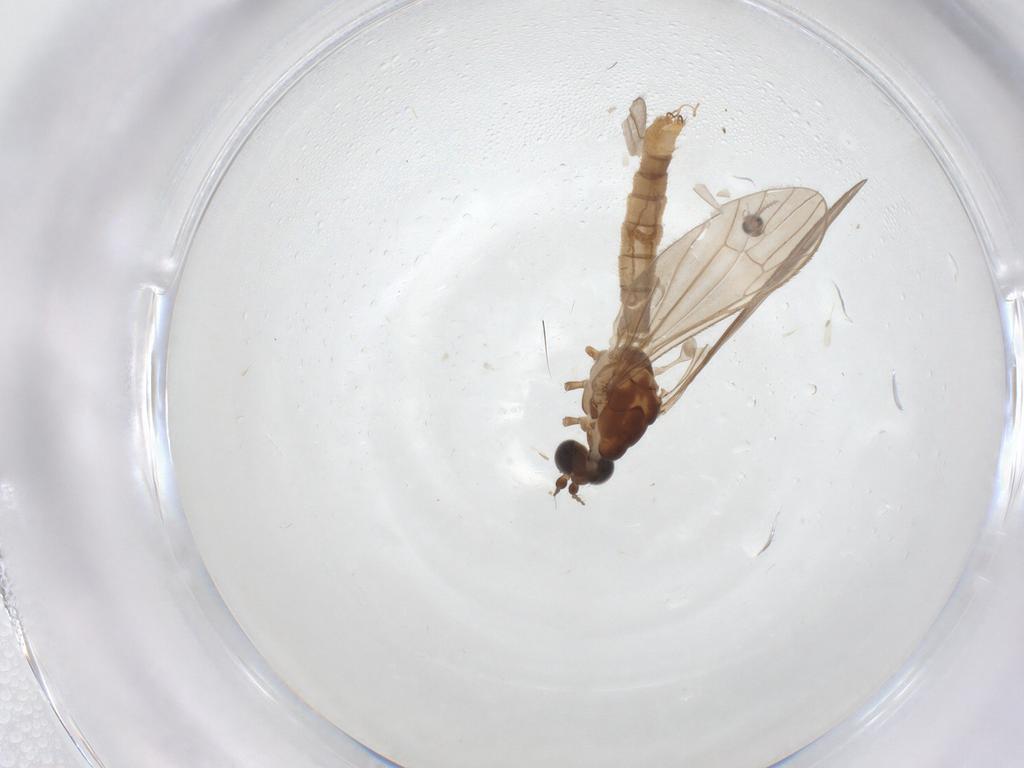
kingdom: Animalia
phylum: Arthropoda
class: Insecta
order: Diptera
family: Limoniidae
